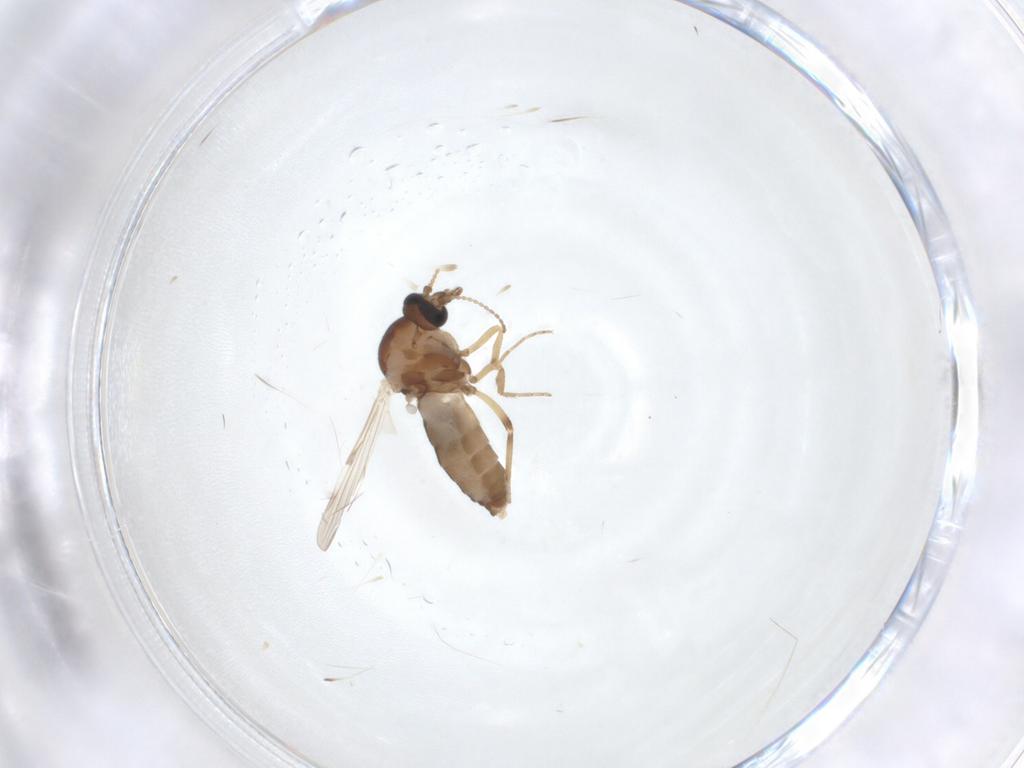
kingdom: Animalia
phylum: Arthropoda
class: Insecta
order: Diptera
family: Ceratopogonidae
